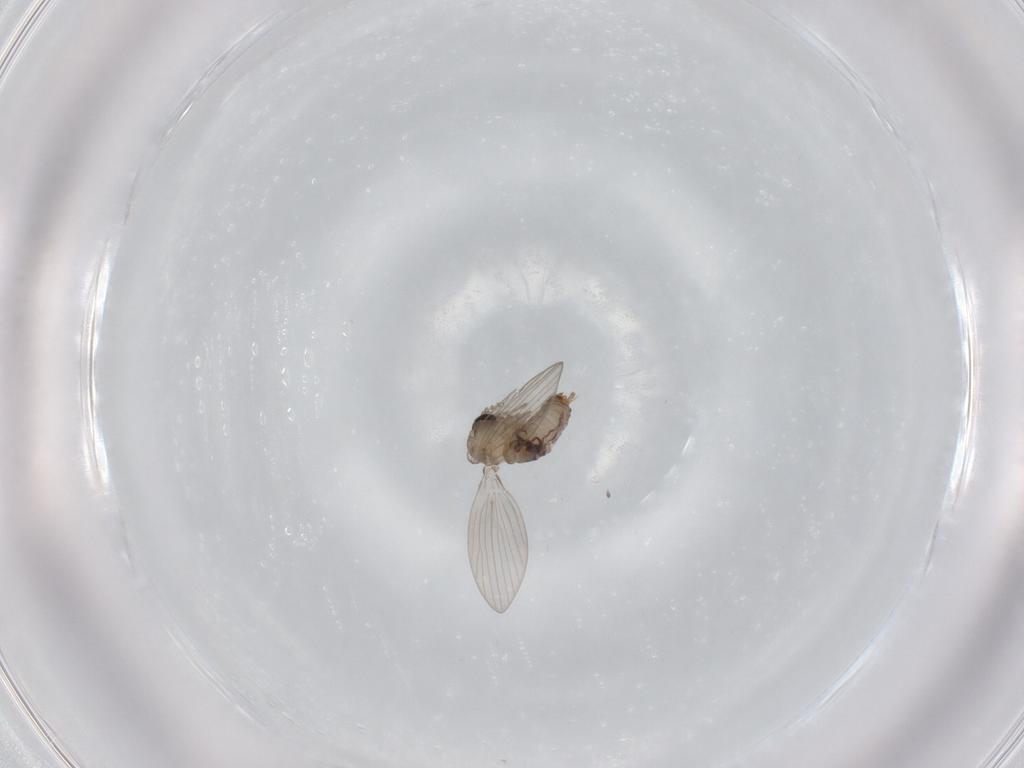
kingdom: Animalia
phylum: Arthropoda
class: Insecta
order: Diptera
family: Psychodidae
